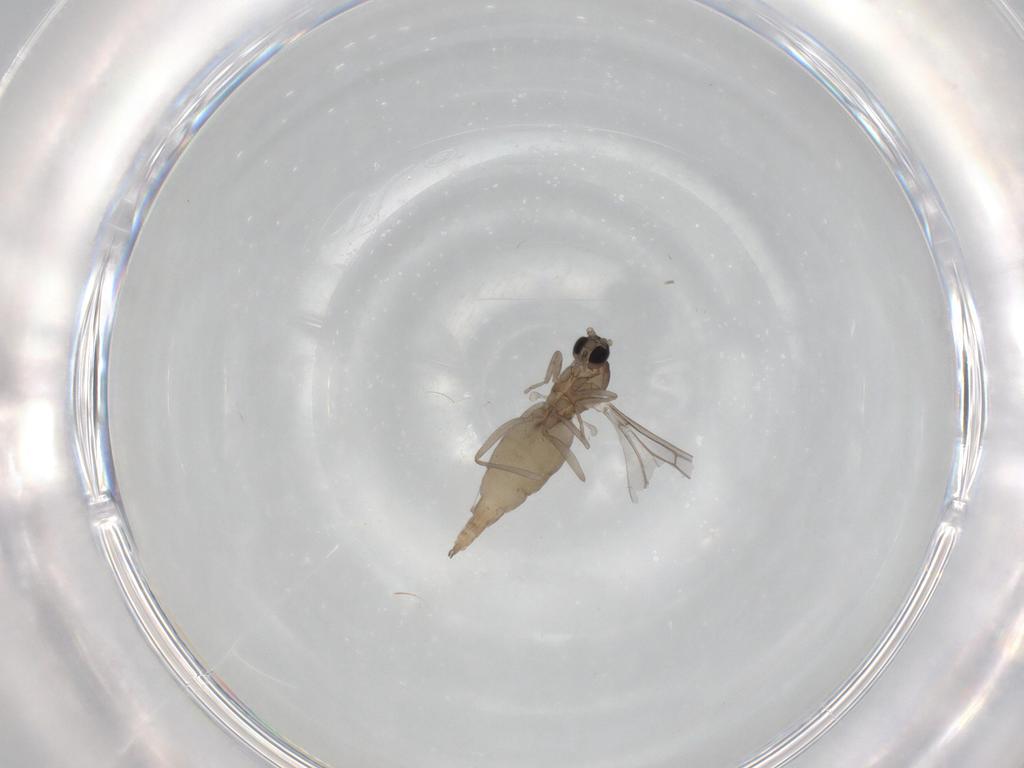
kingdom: Animalia
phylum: Arthropoda
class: Insecta
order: Diptera
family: Cecidomyiidae
